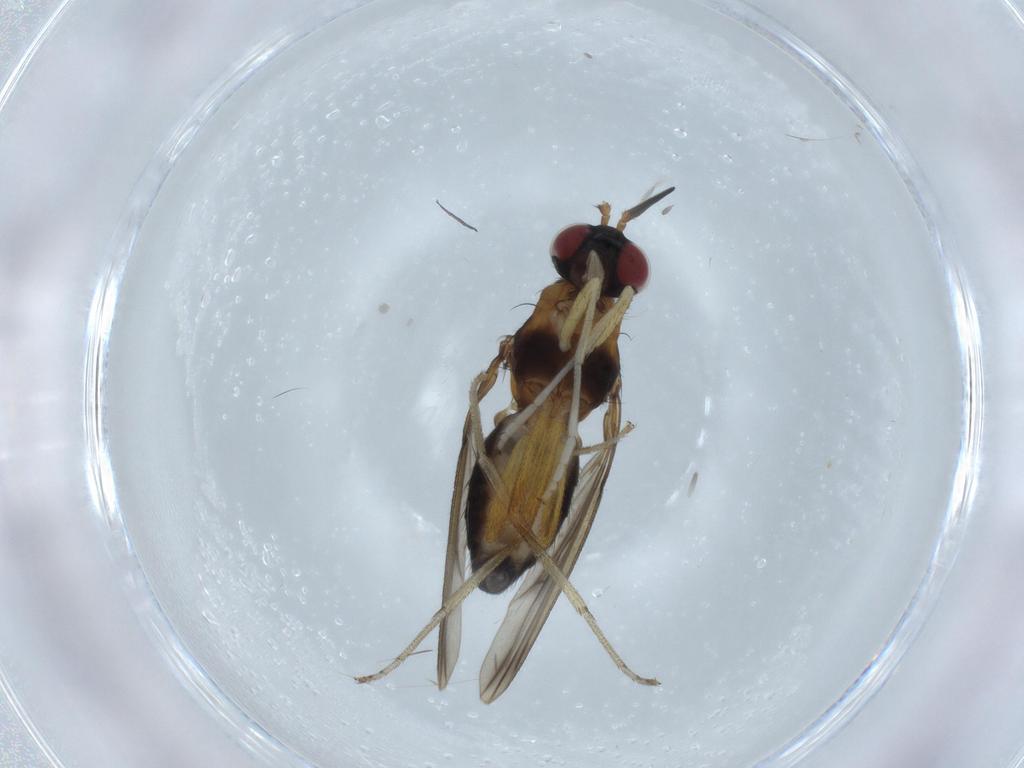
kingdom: Animalia
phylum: Arthropoda
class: Insecta
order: Diptera
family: Lauxaniidae
